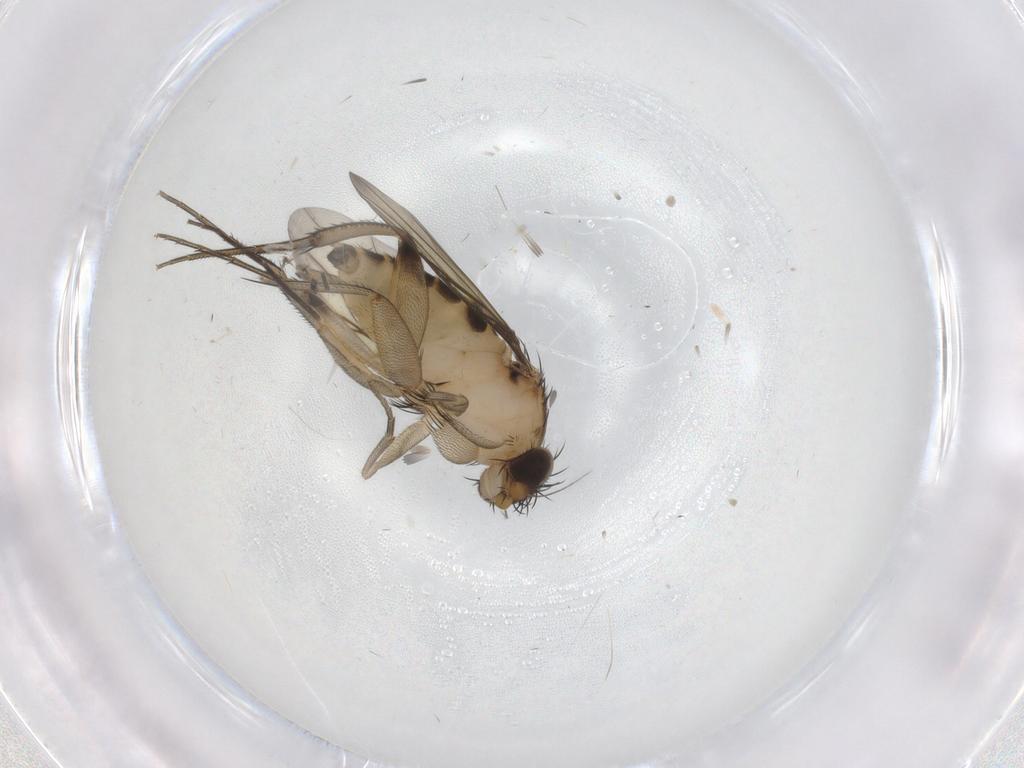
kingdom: Animalia
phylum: Arthropoda
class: Insecta
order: Diptera
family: Phoridae
